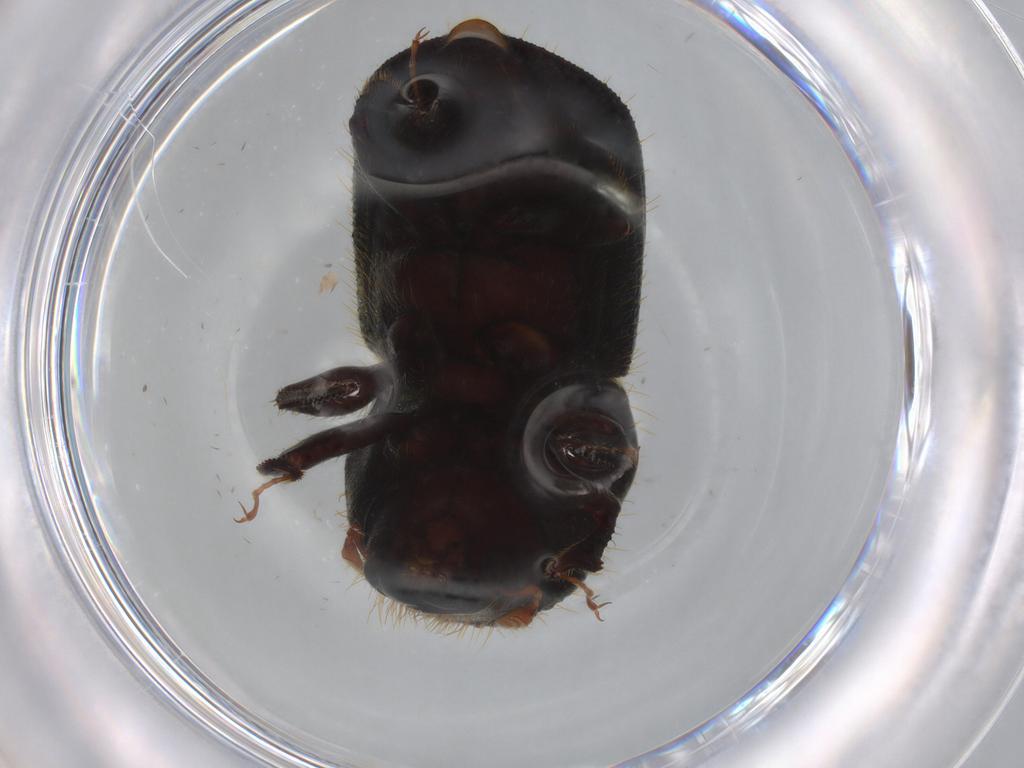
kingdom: Animalia
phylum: Arthropoda
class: Insecta
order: Coleoptera
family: Curculionidae
